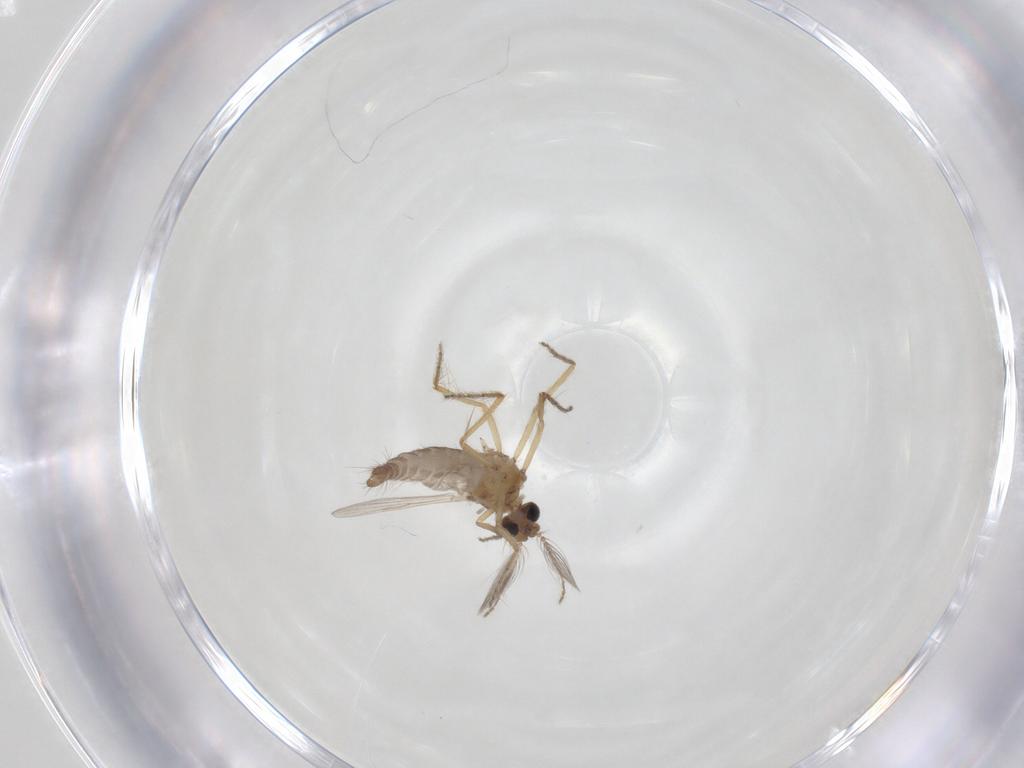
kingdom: Animalia
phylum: Arthropoda
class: Insecta
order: Diptera
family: Ceratopogonidae
